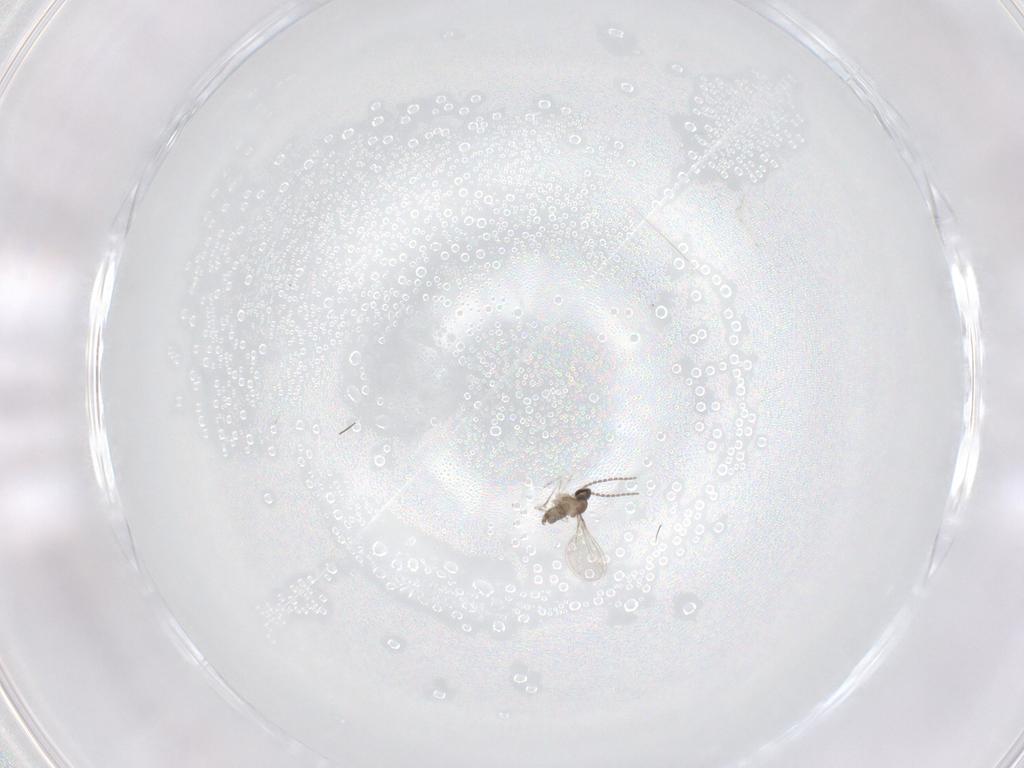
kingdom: Animalia
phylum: Arthropoda
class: Insecta
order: Diptera
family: Cecidomyiidae
